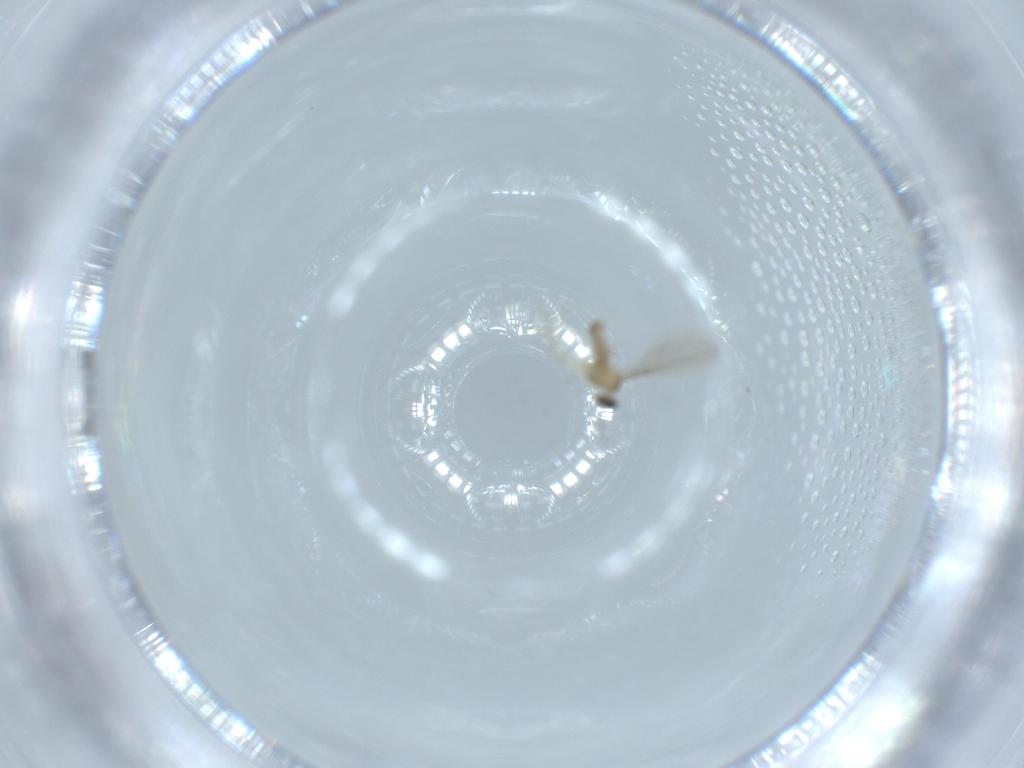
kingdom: Animalia
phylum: Arthropoda
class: Insecta
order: Diptera
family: Cecidomyiidae
